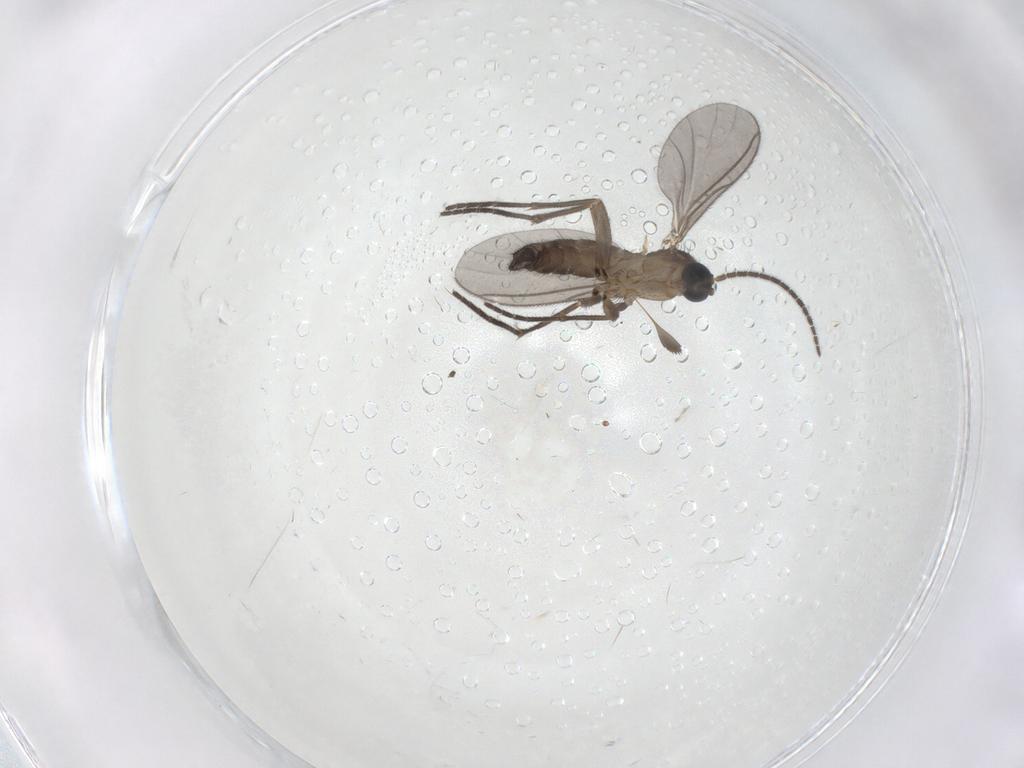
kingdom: Animalia
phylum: Arthropoda
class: Insecta
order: Diptera
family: Sciaridae
